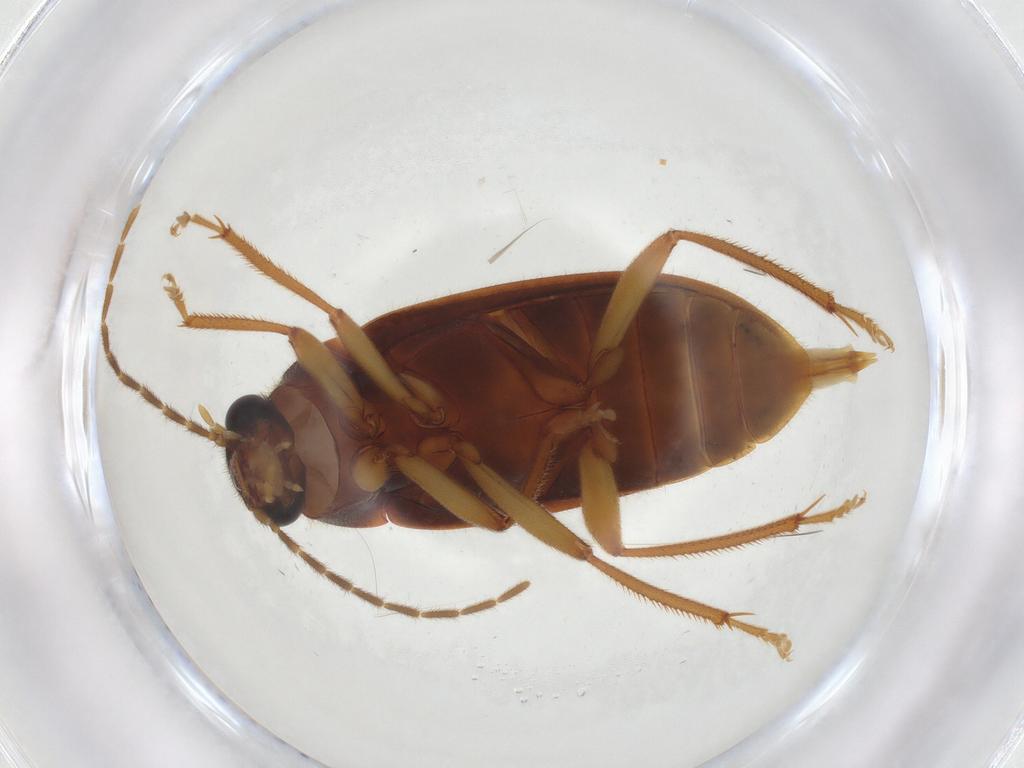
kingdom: Animalia
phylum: Arthropoda
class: Insecta
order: Coleoptera
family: Ptilodactylidae
